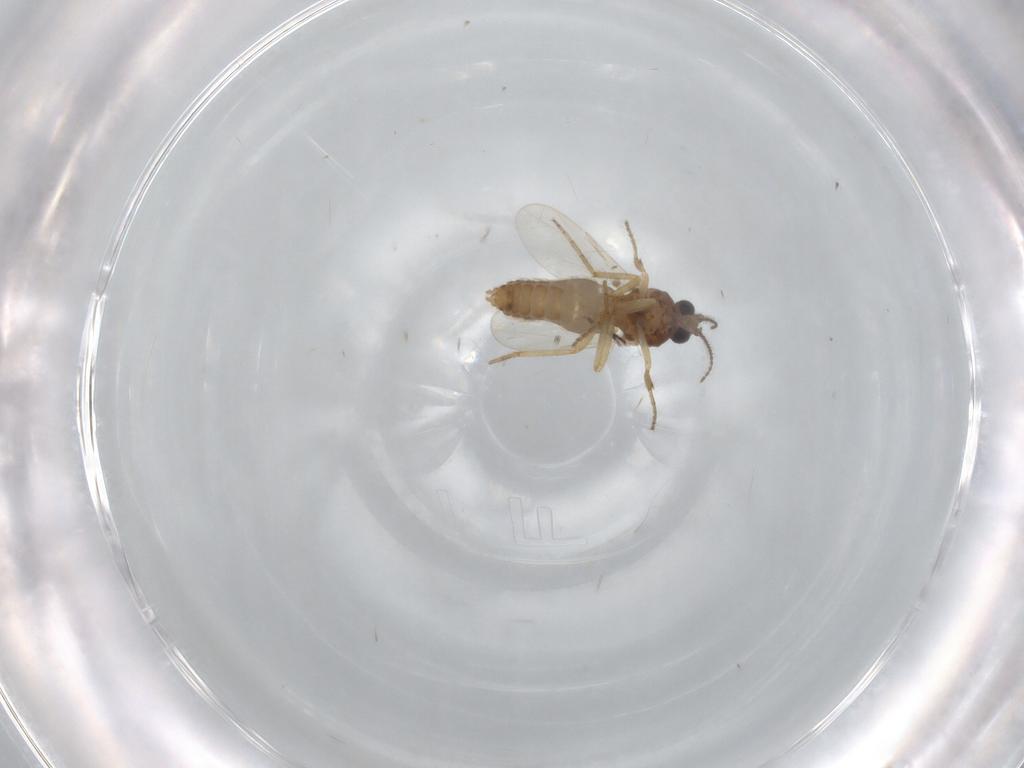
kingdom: Animalia
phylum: Arthropoda
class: Insecta
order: Diptera
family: Ceratopogonidae
